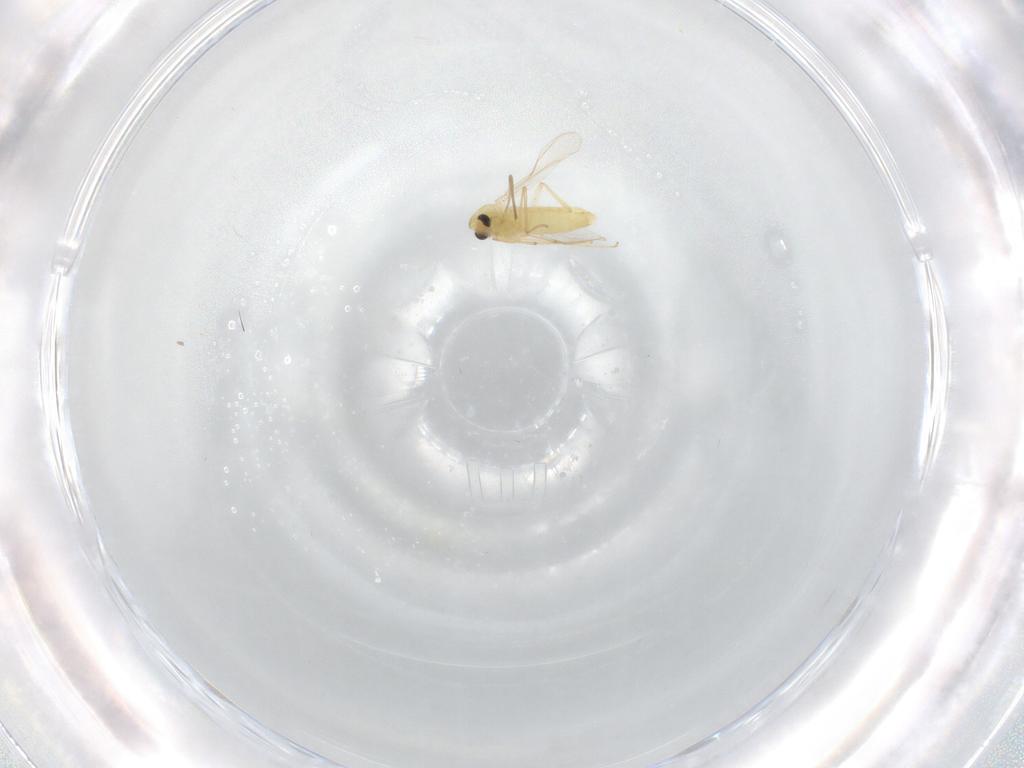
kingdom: Animalia
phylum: Arthropoda
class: Insecta
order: Diptera
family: Chironomidae
